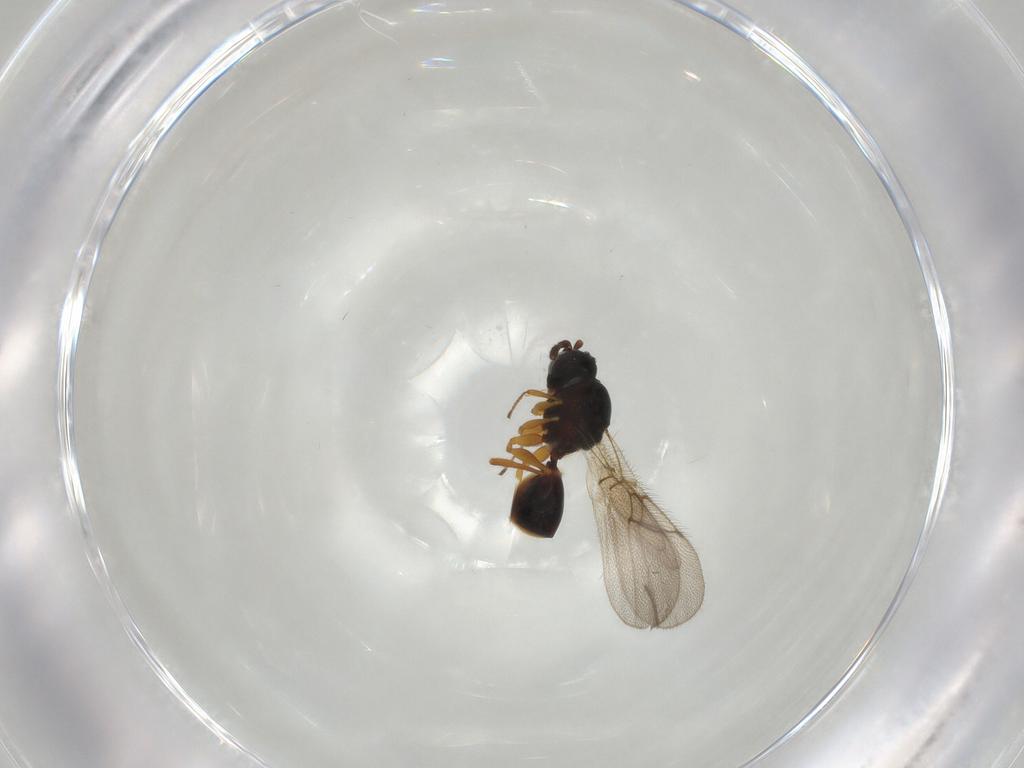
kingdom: Animalia
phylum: Arthropoda
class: Insecta
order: Hymenoptera
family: Figitidae
